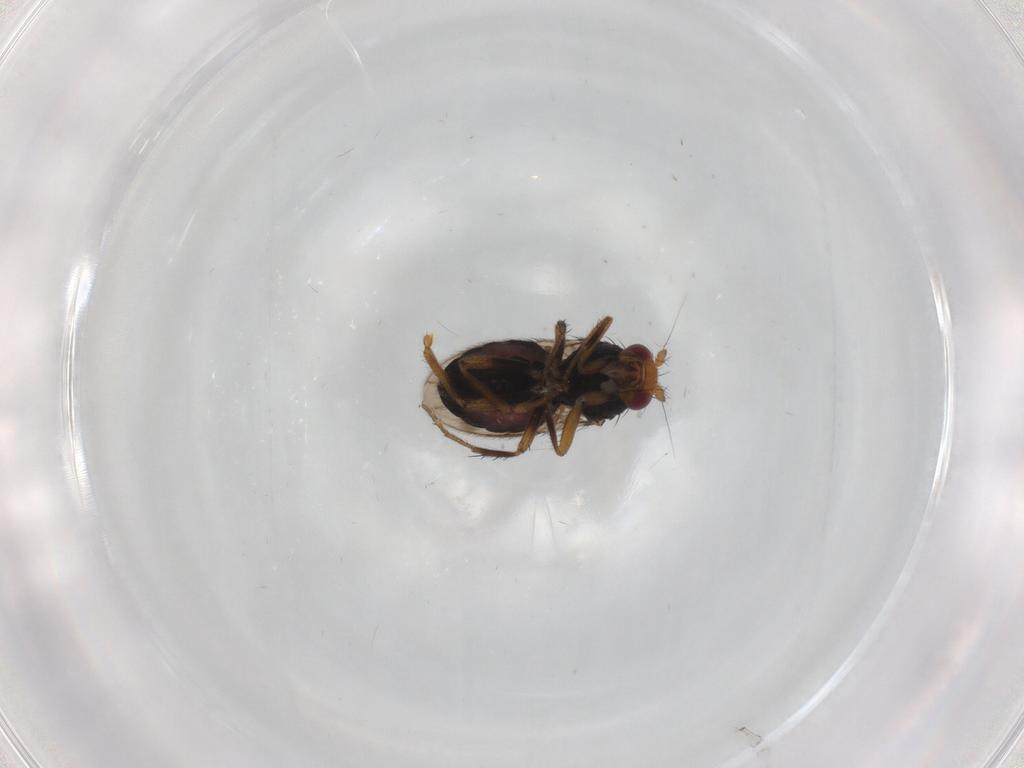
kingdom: Animalia
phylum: Arthropoda
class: Insecta
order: Diptera
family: Sphaeroceridae
